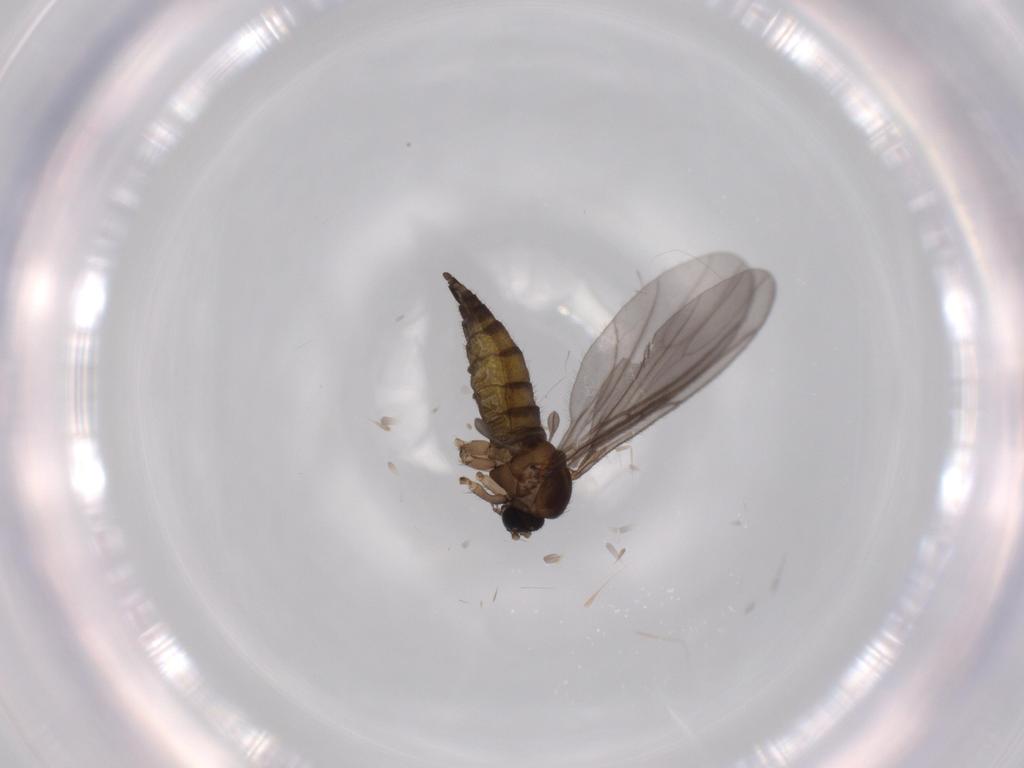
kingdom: Animalia
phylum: Arthropoda
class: Insecta
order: Diptera
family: Sciaridae
